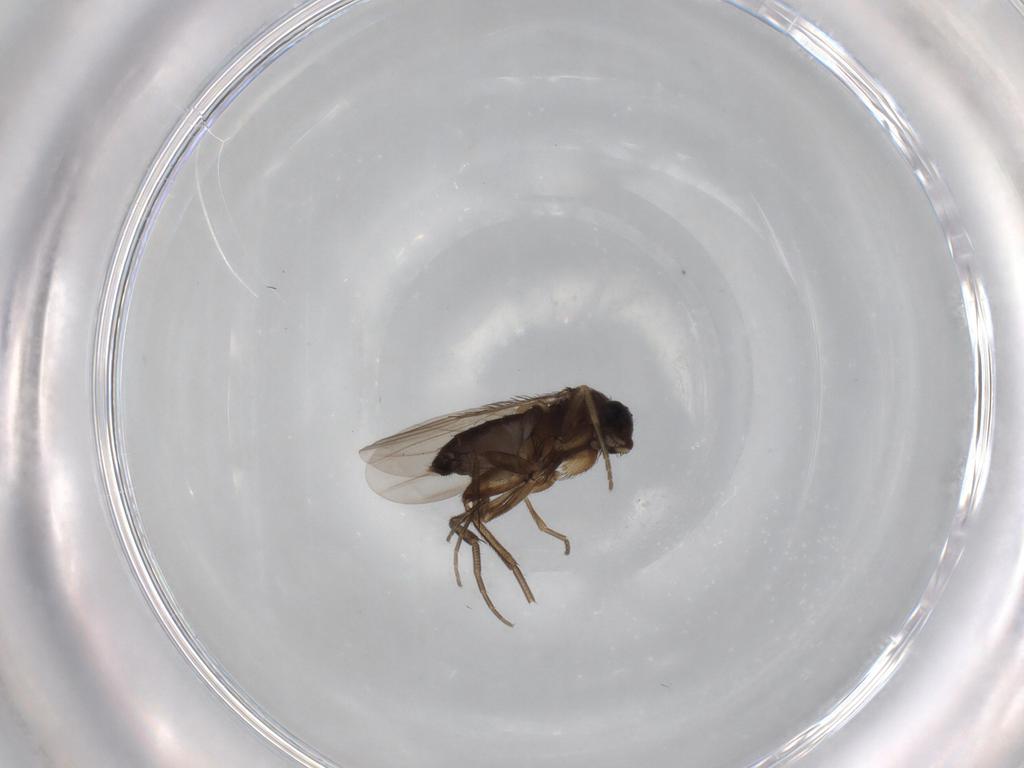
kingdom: Animalia
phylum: Arthropoda
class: Insecta
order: Diptera
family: Phoridae
